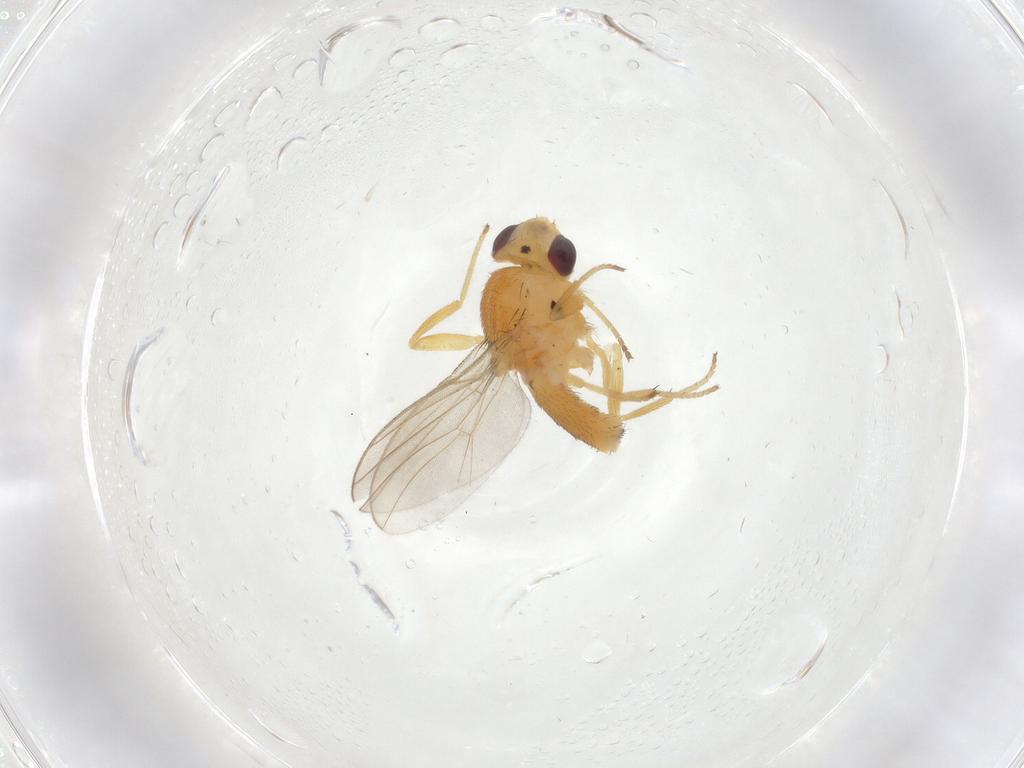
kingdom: Animalia
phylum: Arthropoda
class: Insecta
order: Diptera
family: Chloropidae
